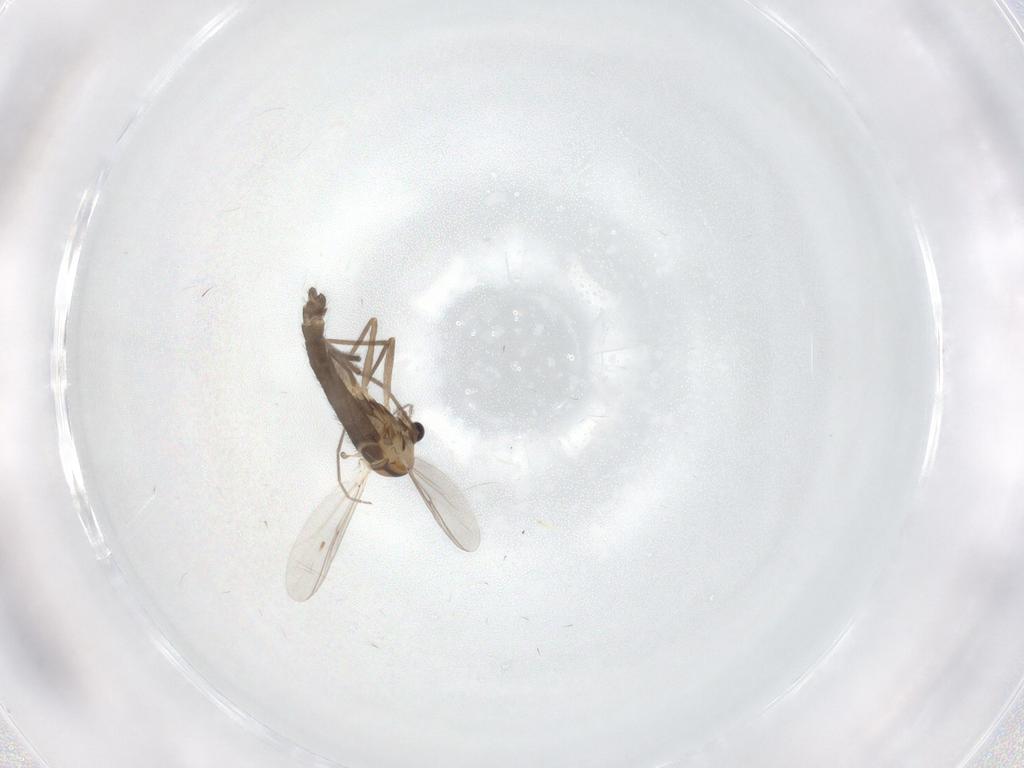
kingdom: Animalia
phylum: Arthropoda
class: Insecta
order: Diptera
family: Chironomidae
